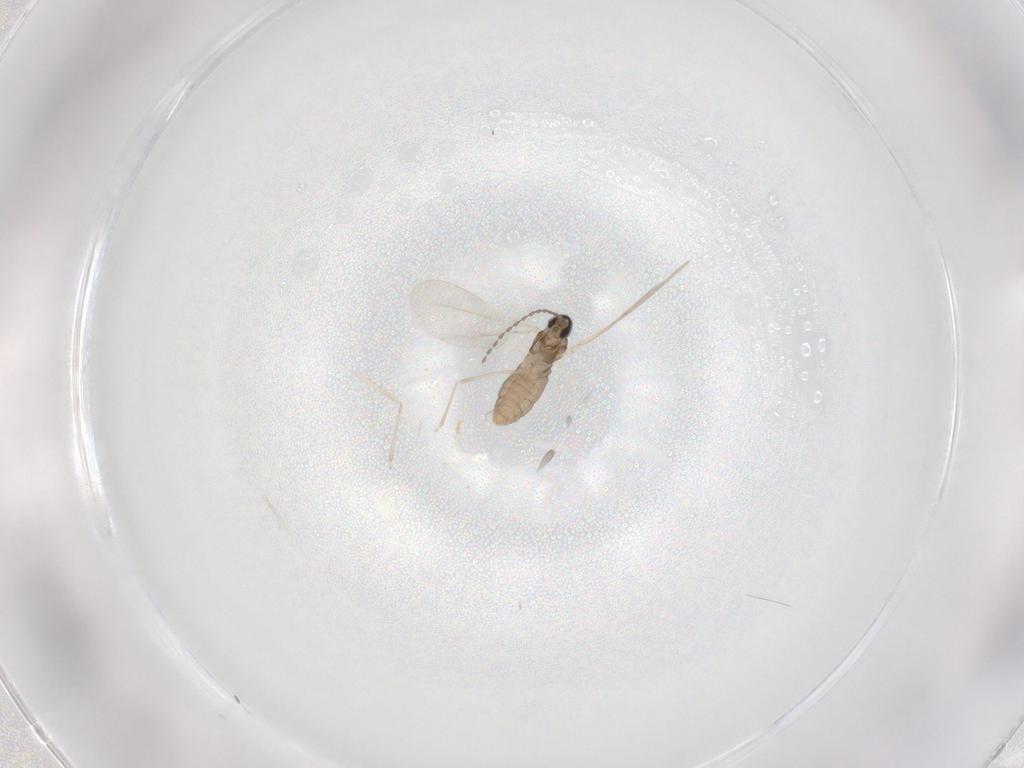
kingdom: Animalia
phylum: Arthropoda
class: Insecta
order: Diptera
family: Cecidomyiidae
